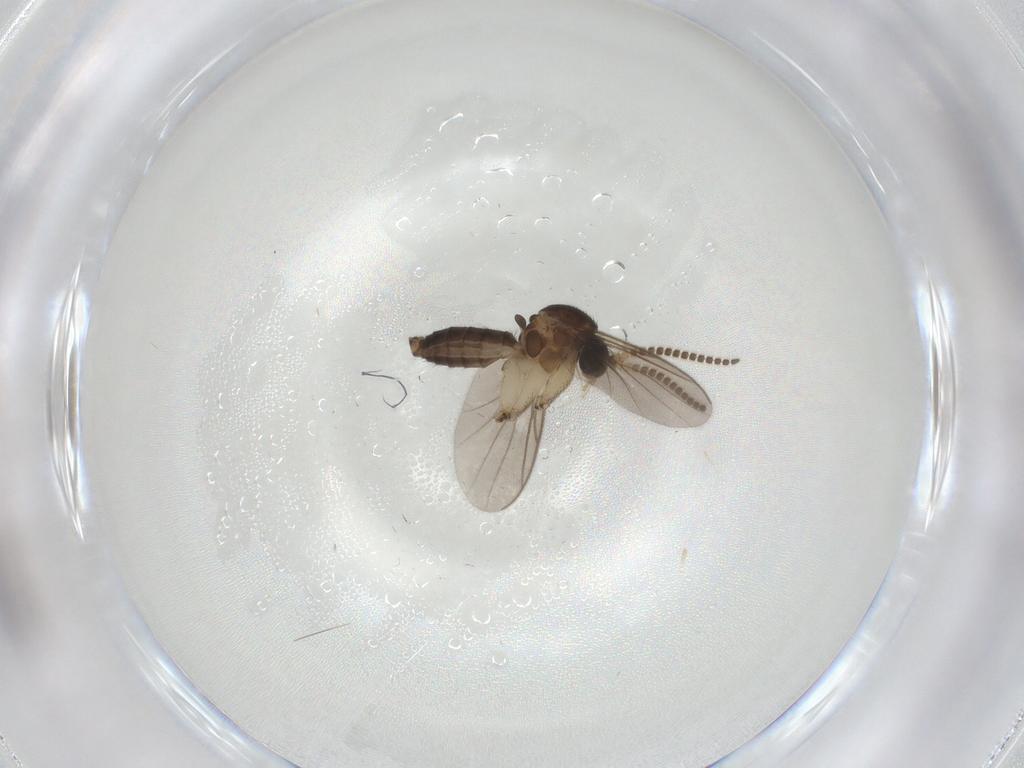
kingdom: Animalia
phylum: Arthropoda
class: Insecta
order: Diptera
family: Cecidomyiidae
